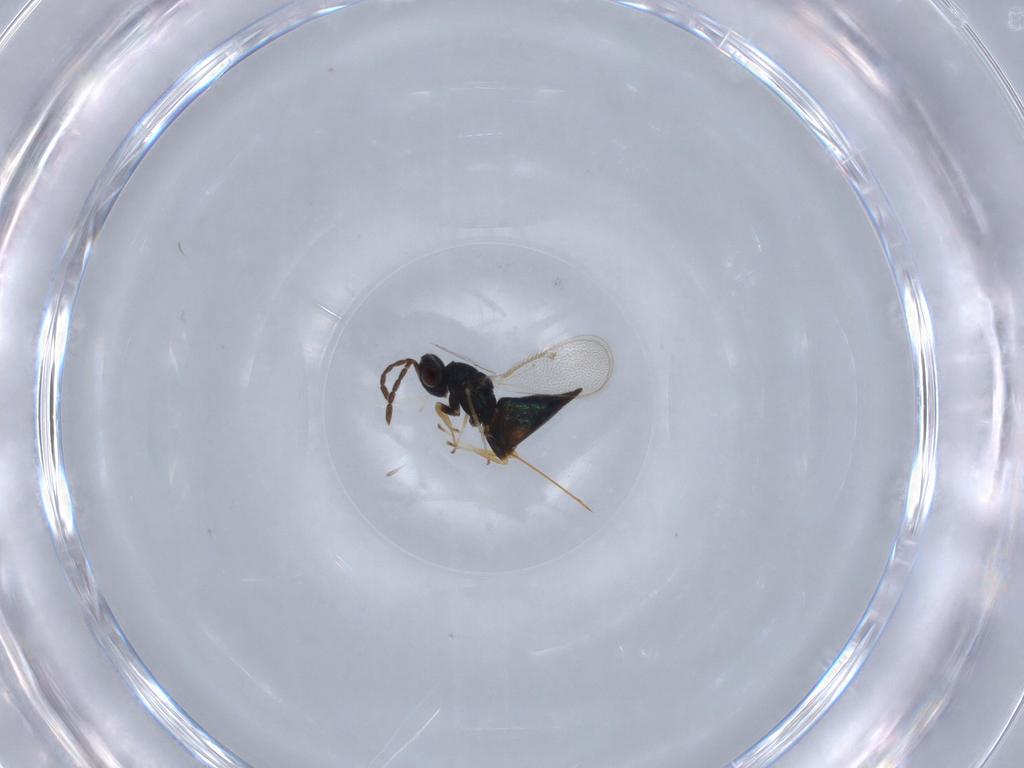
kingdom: Animalia
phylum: Arthropoda
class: Insecta
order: Hymenoptera
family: Eulophidae
